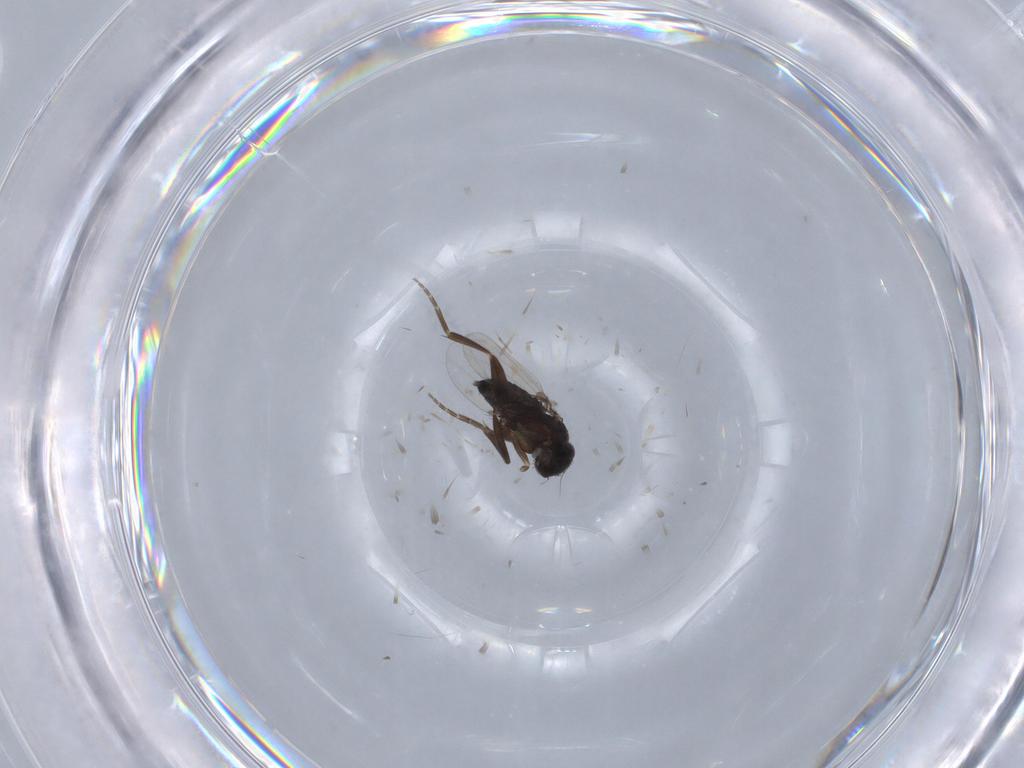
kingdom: Animalia
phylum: Arthropoda
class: Insecta
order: Diptera
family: Phoridae
